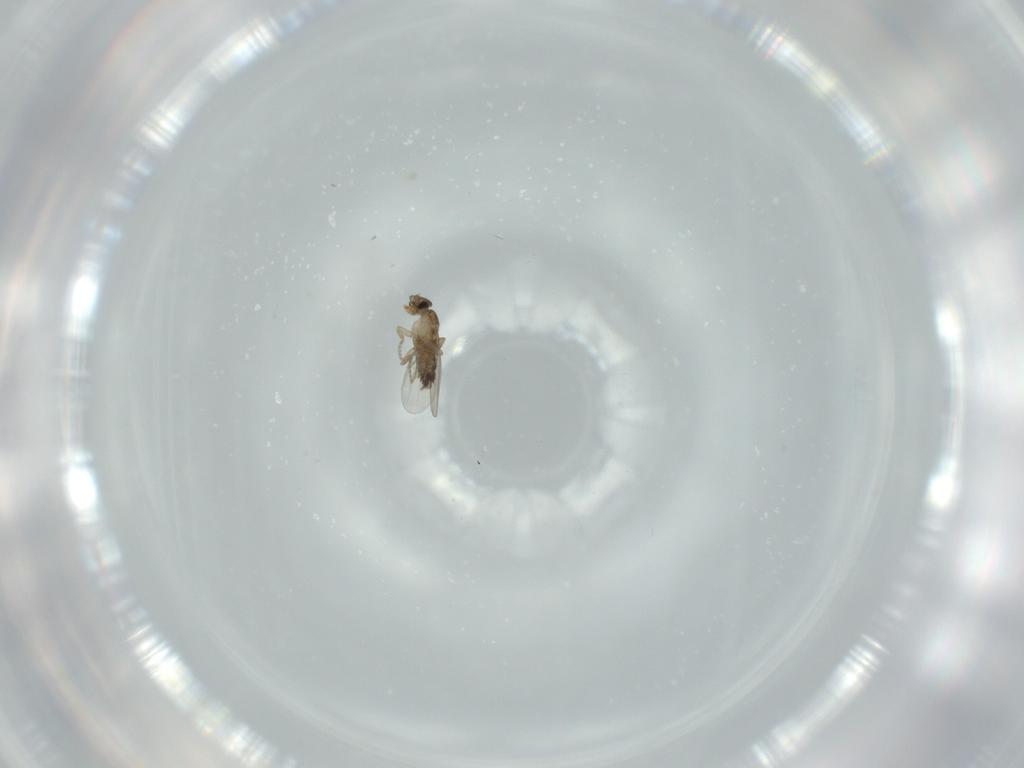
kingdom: Animalia
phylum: Arthropoda
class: Insecta
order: Diptera
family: Phoridae
